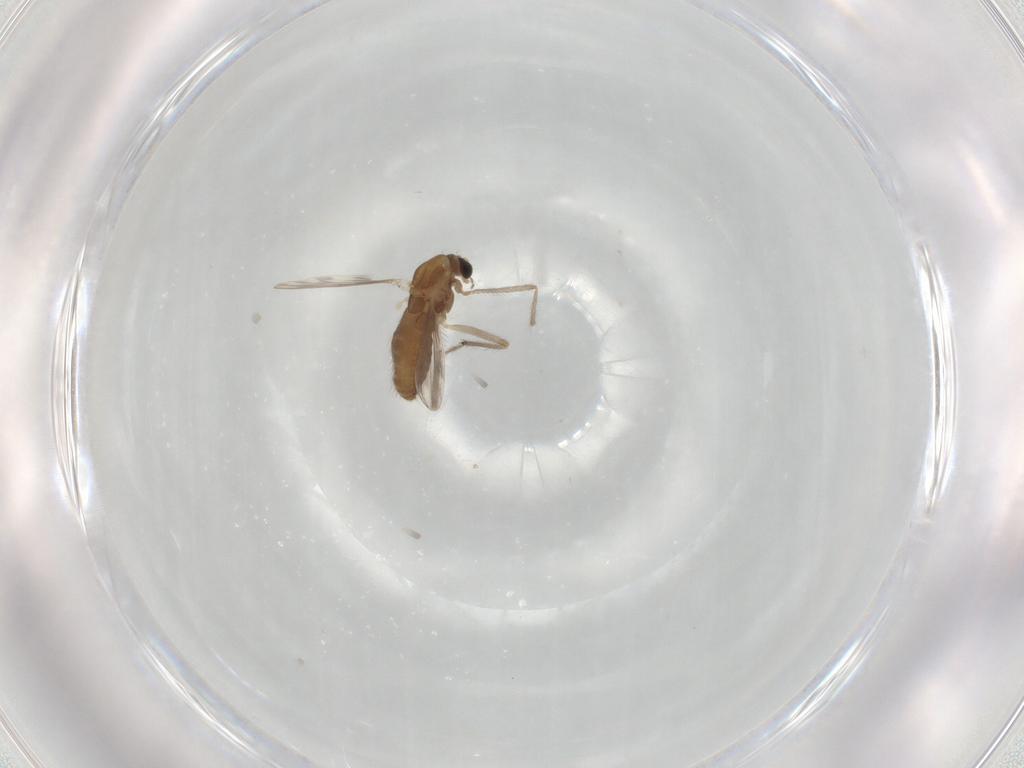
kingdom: Animalia
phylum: Arthropoda
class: Insecta
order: Diptera
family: Chironomidae
